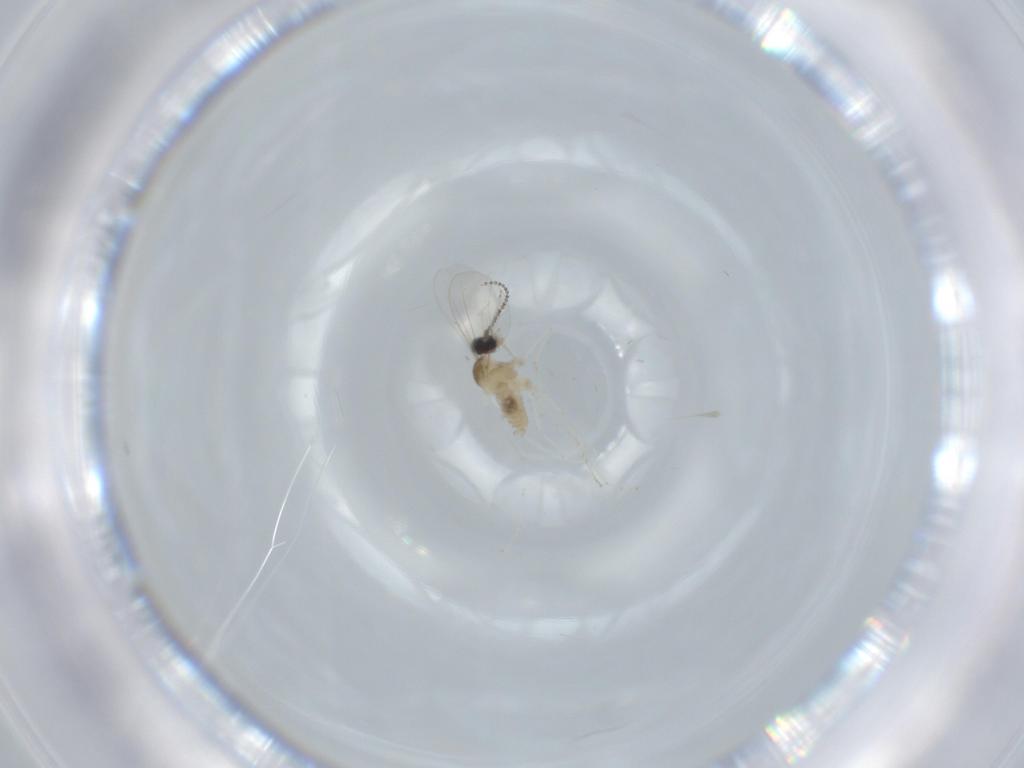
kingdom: Animalia
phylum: Arthropoda
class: Insecta
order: Diptera
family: Cecidomyiidae
